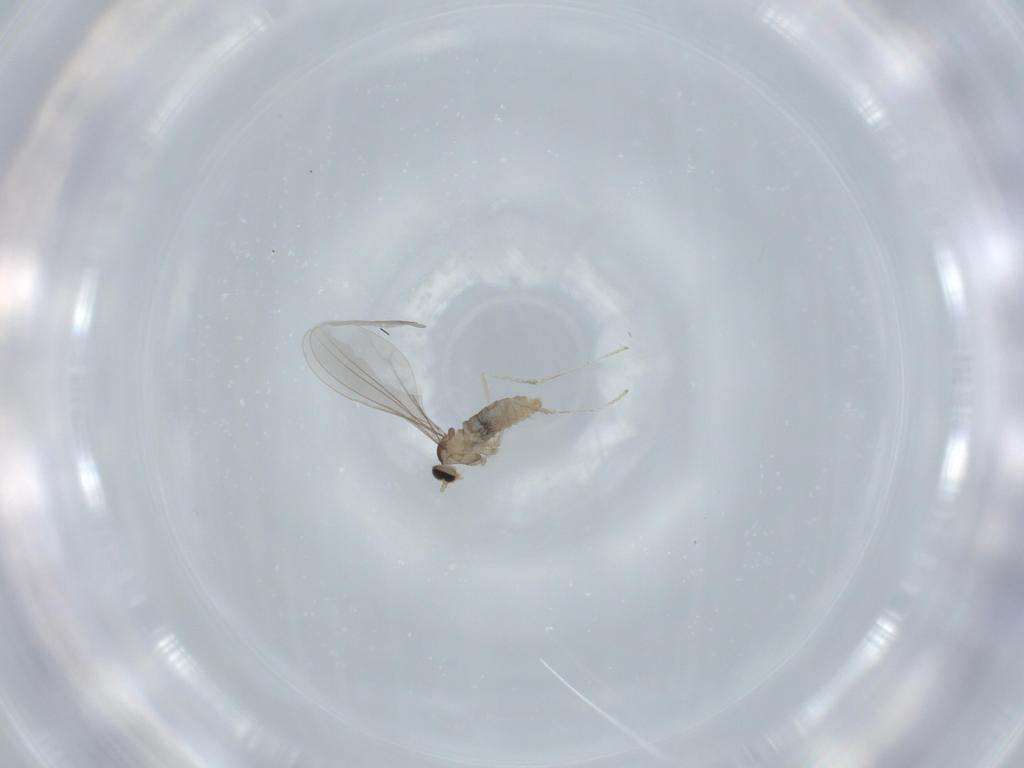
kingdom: Animalia
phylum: Arthropoda
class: Insecta
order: Diptera
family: Cecidomyiidae
